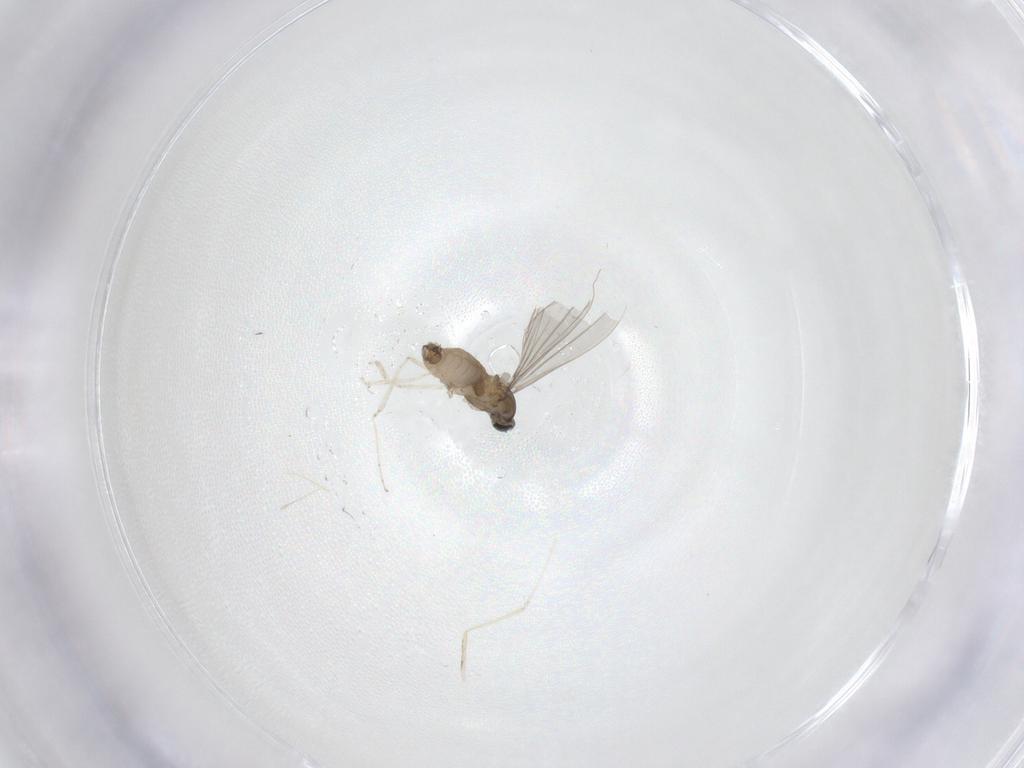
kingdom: Animalia
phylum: Arthropoda
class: Insecta
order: Diptera
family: Cecidomyiidae
